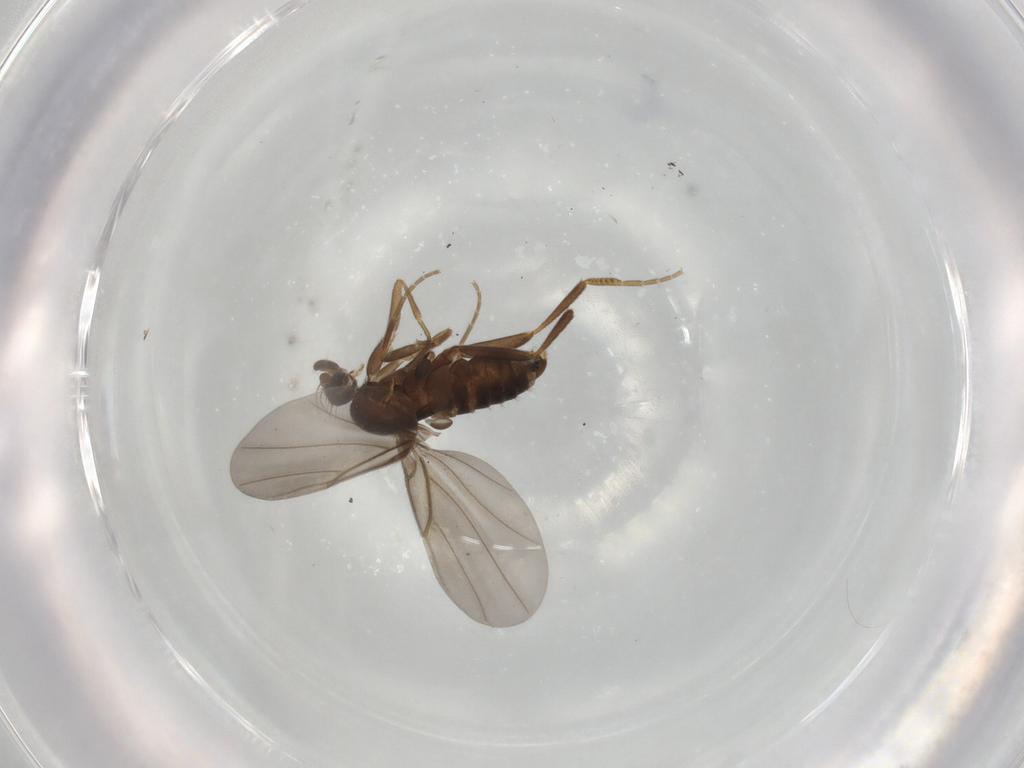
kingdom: Animalia
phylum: Arthropoda
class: Insecta
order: Diptera
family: Phoridae
